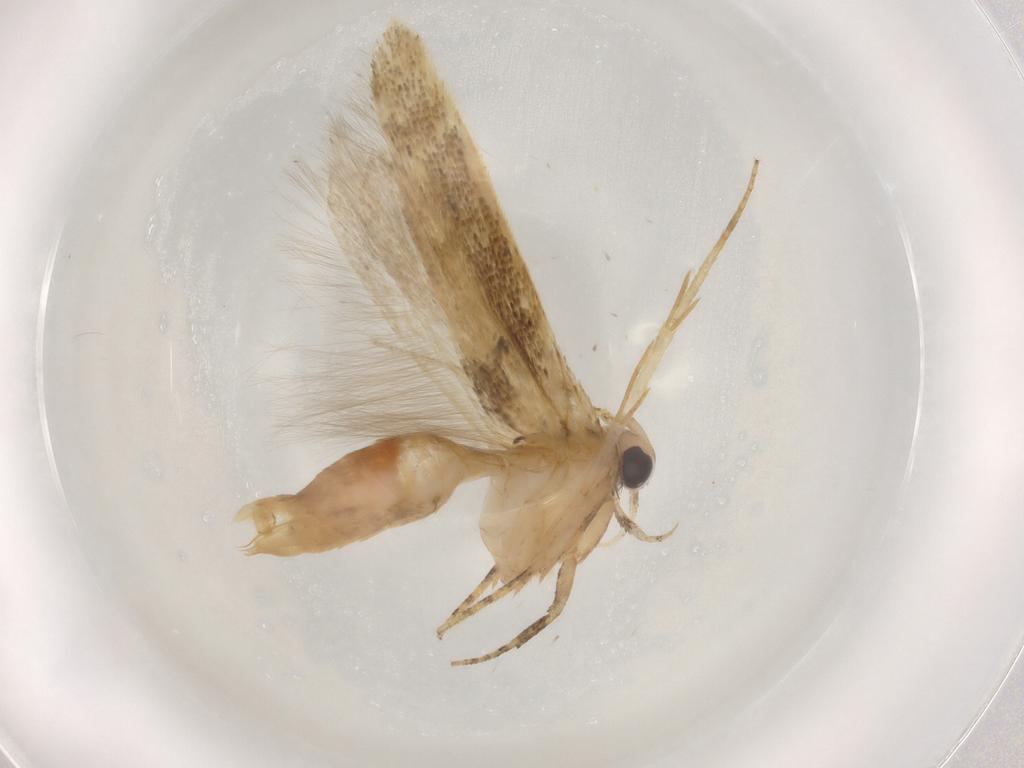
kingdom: Animalia
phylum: Arthropoda
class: Insecta
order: Lepidoptera
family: Gelechiidae
